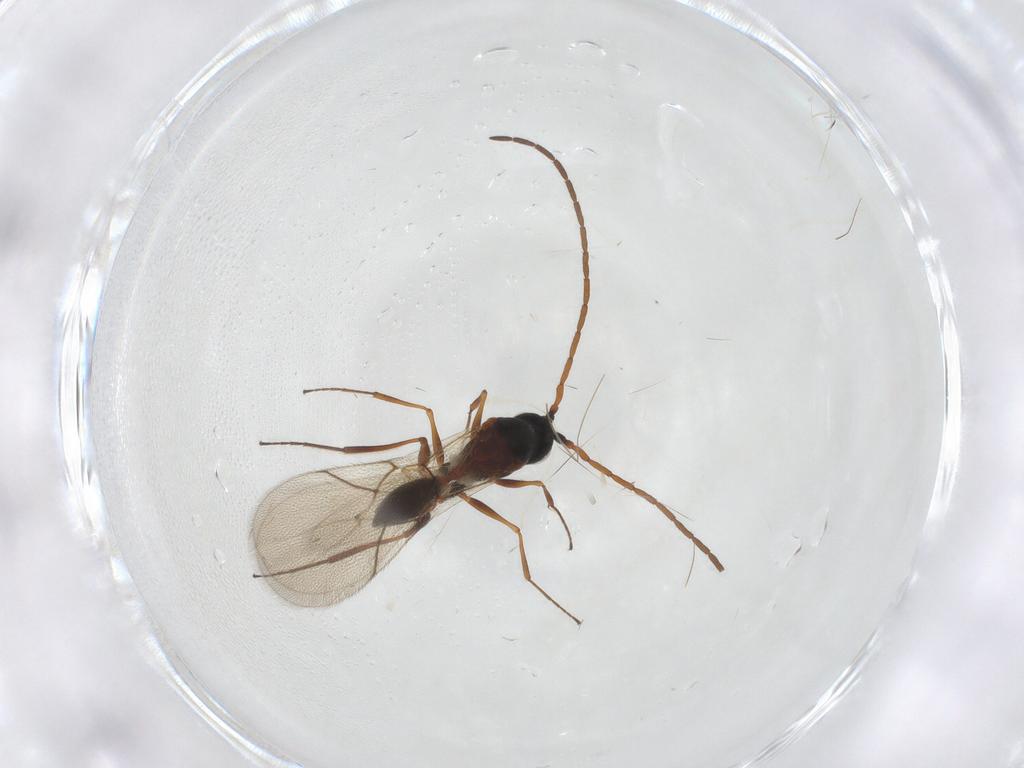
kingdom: Animalia
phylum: Arthropoda
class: Insecta
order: Hymenoptera
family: Figitidae
